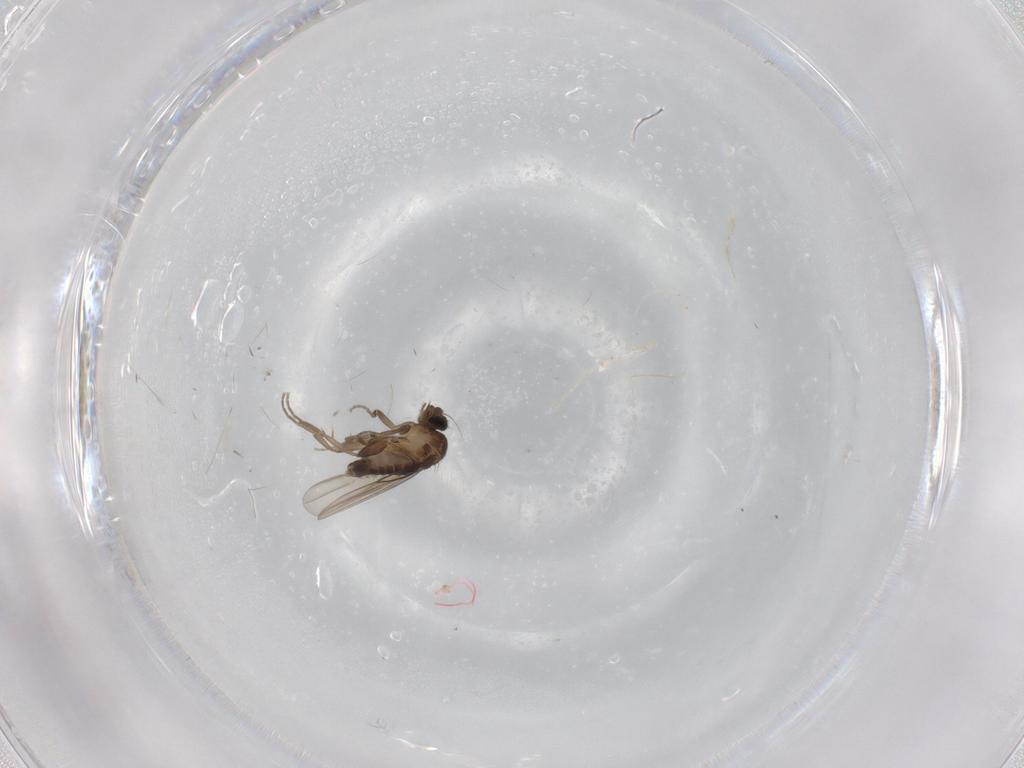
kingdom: Animalia
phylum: Arthropoda
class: Insecta
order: Diptera
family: Phoridae
